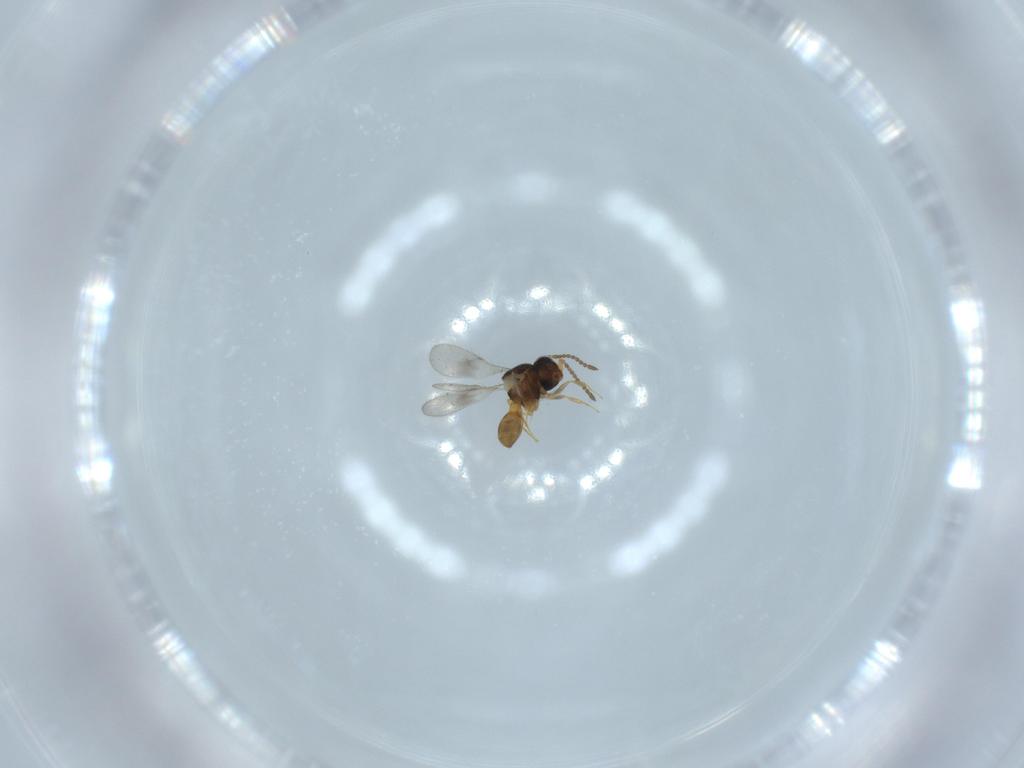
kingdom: Animalia
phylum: Arthropoda
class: Insecta
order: Hymenoptera
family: Scelionidae
